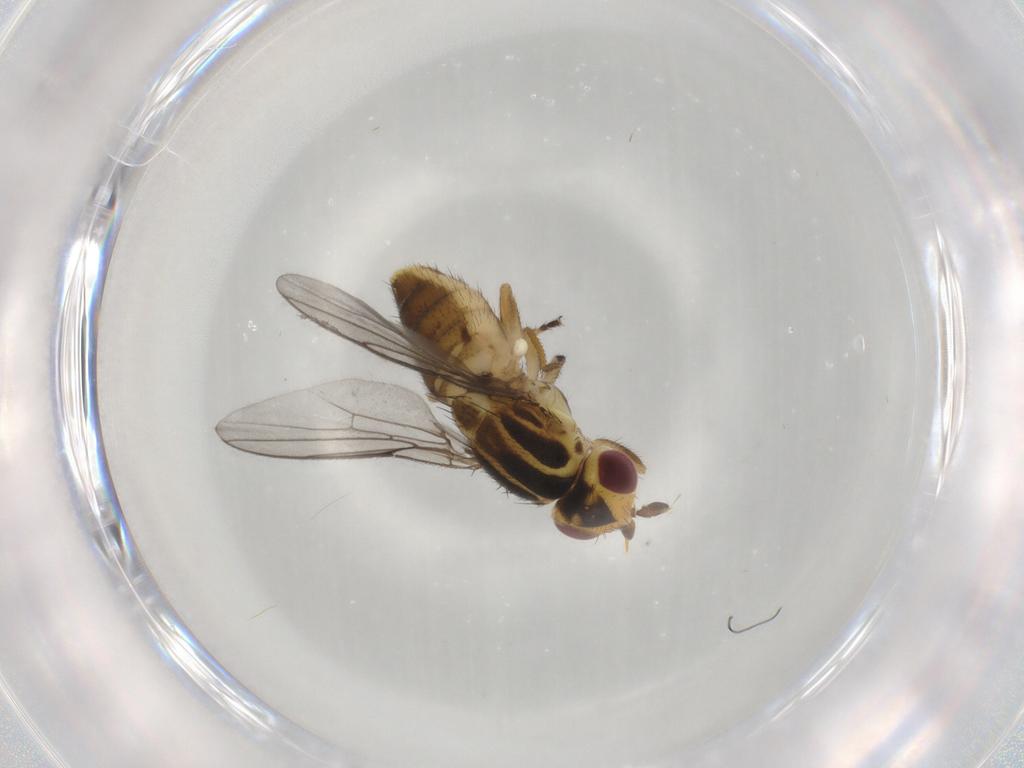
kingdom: Animalia
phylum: Arthropoda
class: Insecta
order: Diptera
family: Chloropidae
